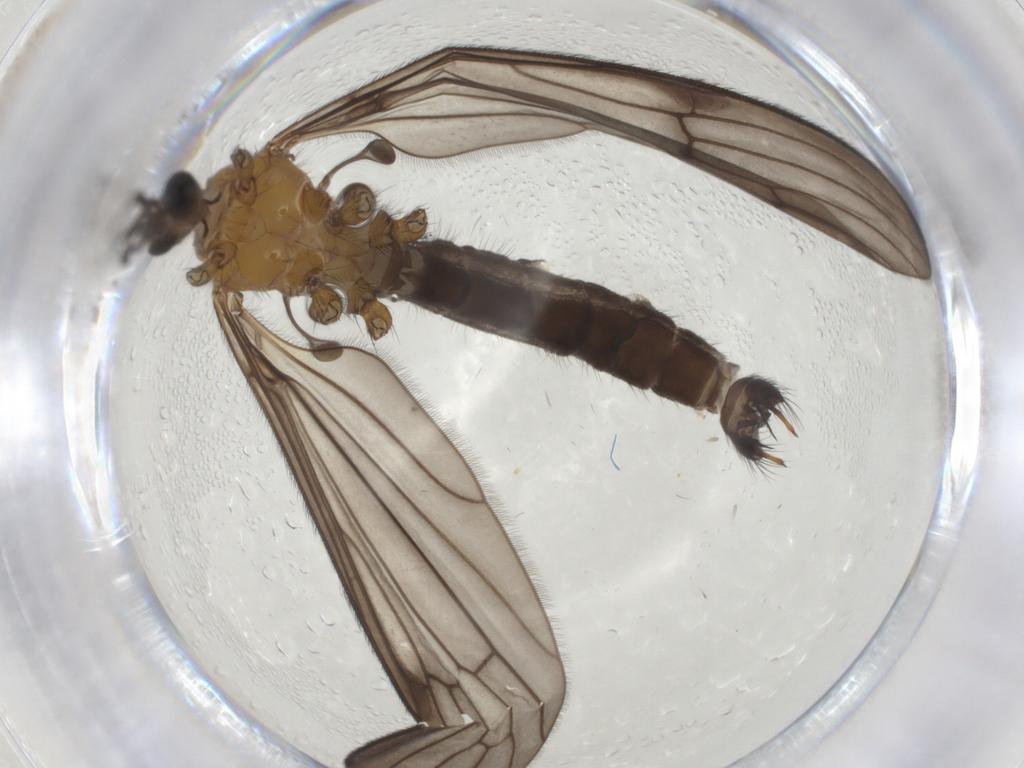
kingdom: Animalia
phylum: Arthropoda
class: Insecta
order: Diptera
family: Limoniidae
